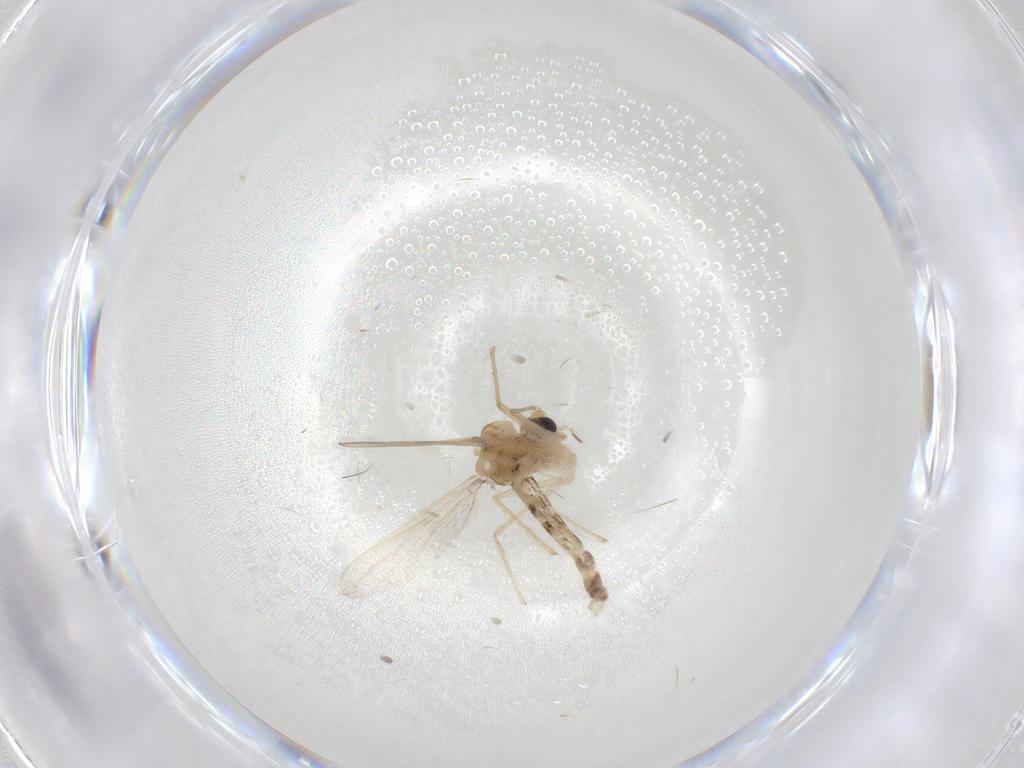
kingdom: Animalia
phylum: Arthropoda
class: Insecta
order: Diptera
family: Chironomidae
